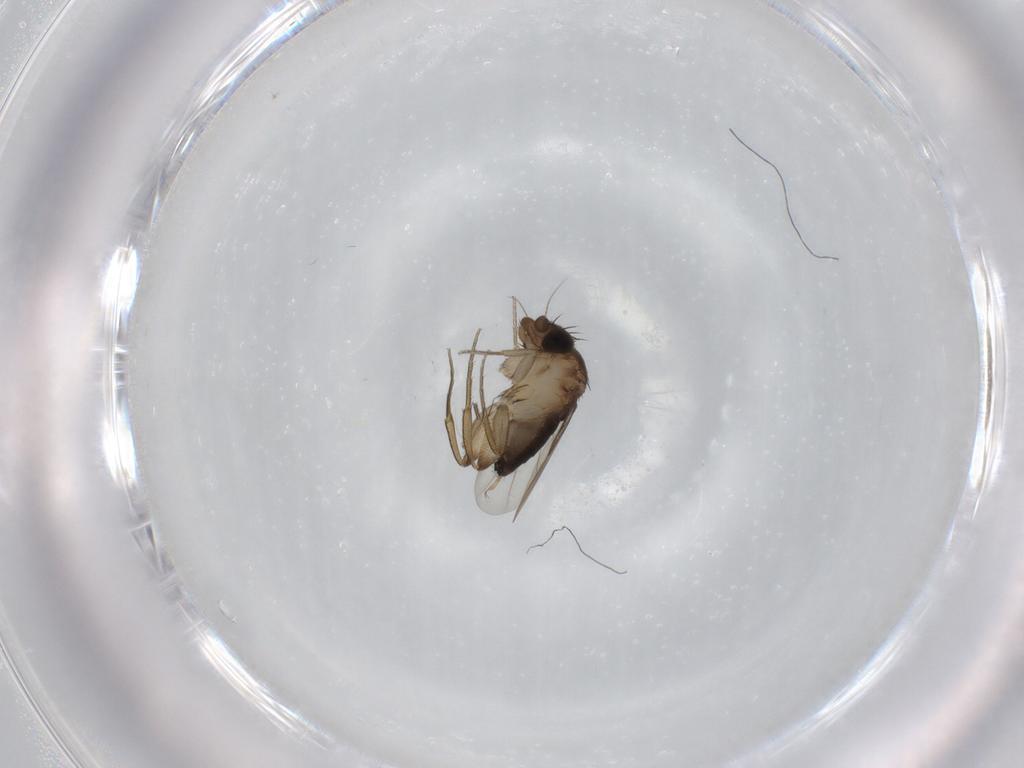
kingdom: Animalia
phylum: Arthropoda
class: Insecta
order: Diptera
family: Phoridae
